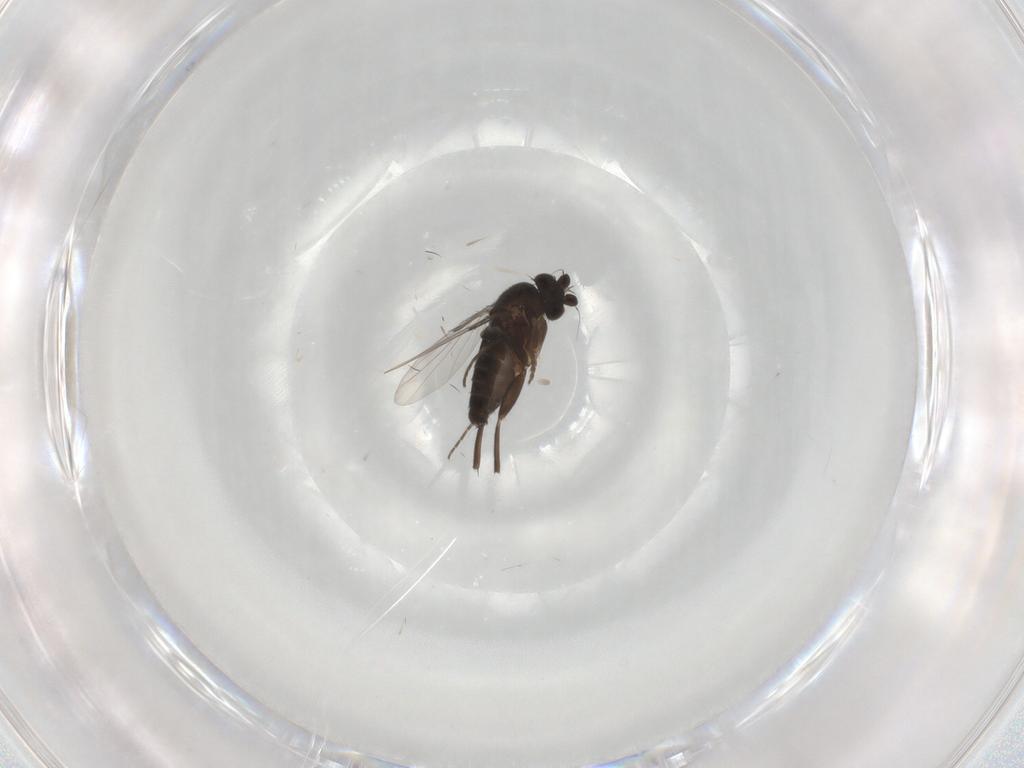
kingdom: Animalia
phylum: Arthropoda
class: Insecta
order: Diptera
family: Phoridae
